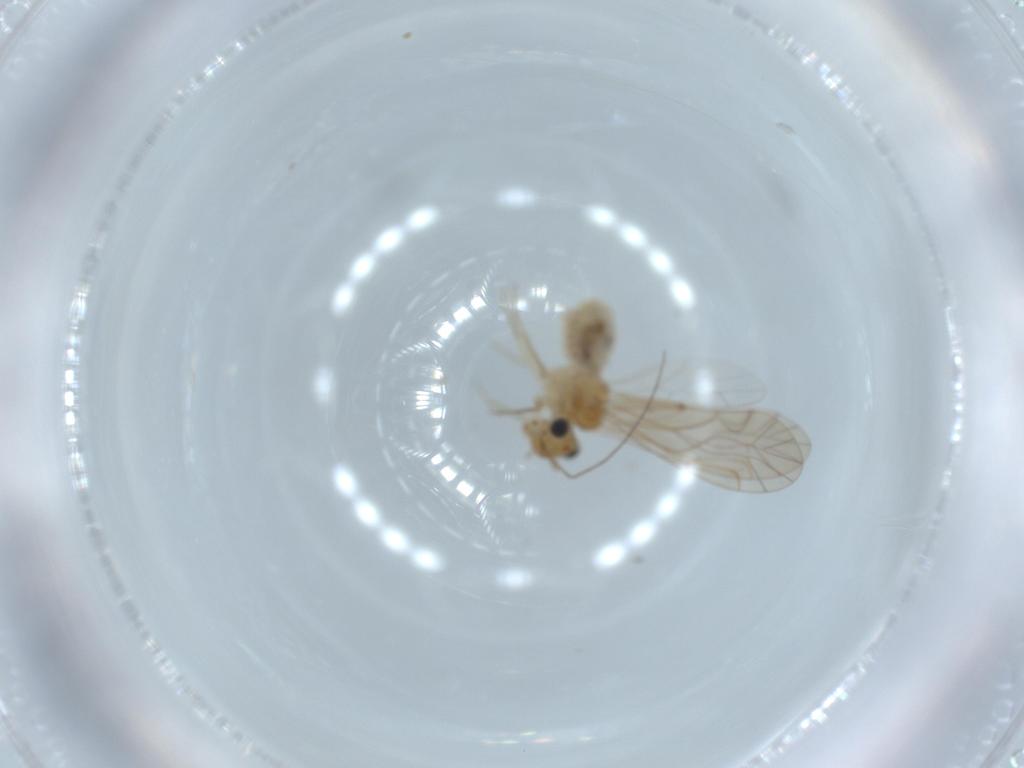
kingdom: Animalia
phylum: Arthropoda
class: Insecta
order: Psocodea
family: Lachesillidae
